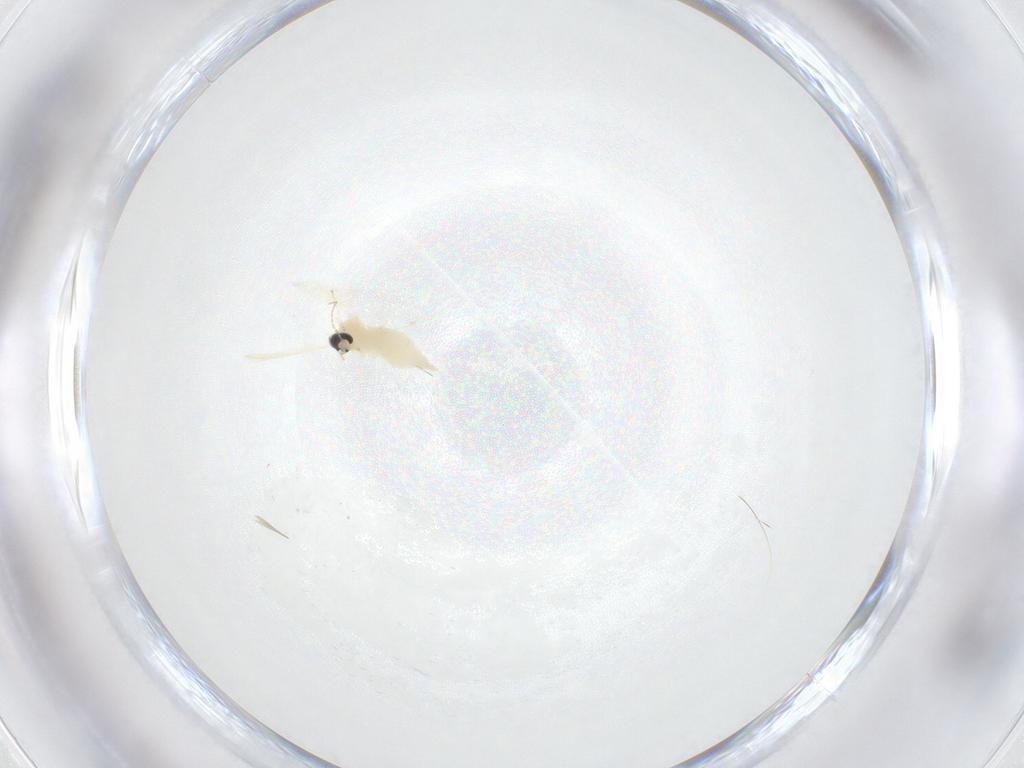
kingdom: Animalia
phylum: Arthropoda
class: Insecta
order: Diptera
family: Cecidomyiidae
